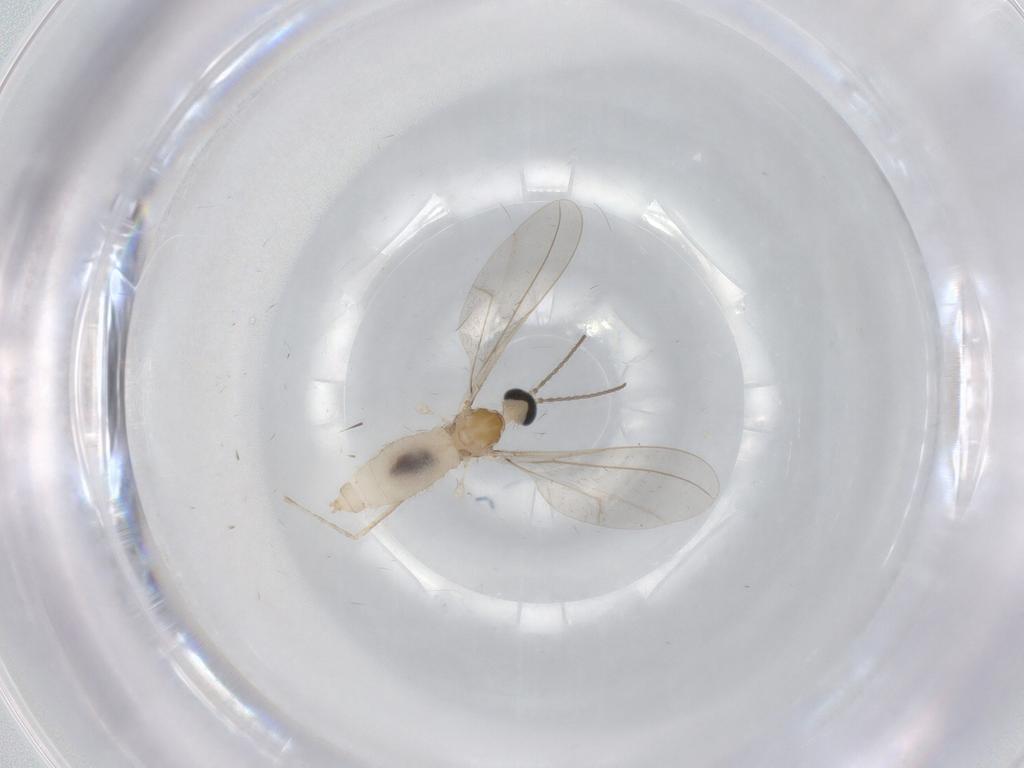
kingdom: Animalia
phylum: Arthropoda
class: Insecta
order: Diptera
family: Cecidomyiidae
